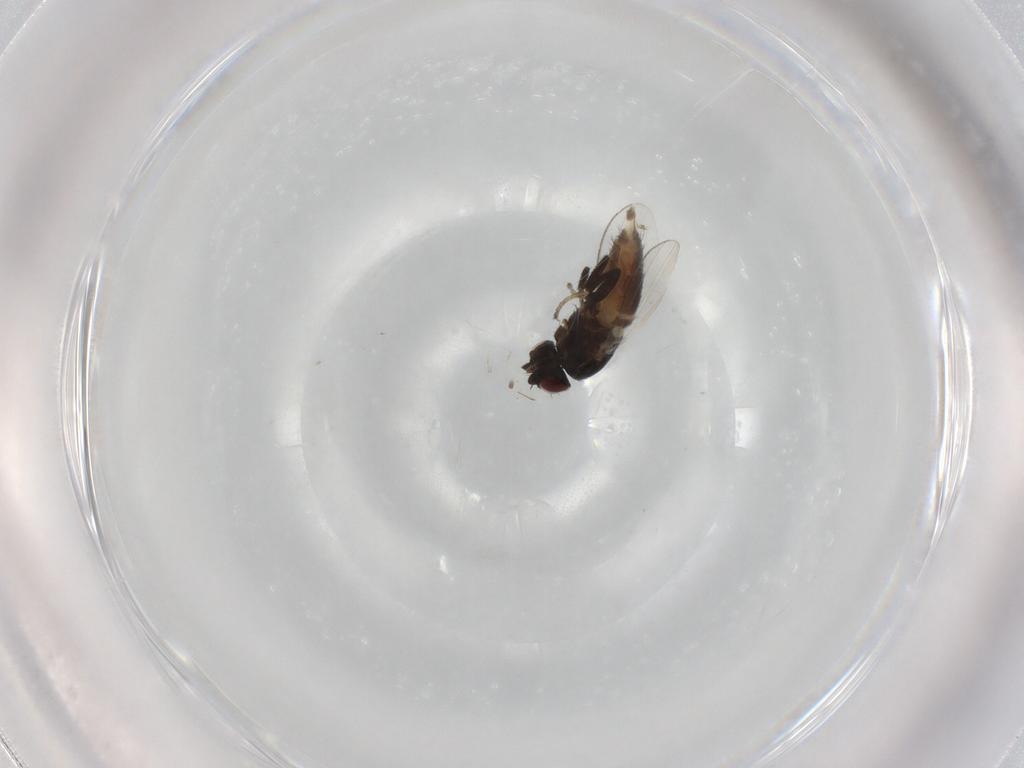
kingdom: Animalia
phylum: Arthropoda
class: Insecta
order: Diptera
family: Milichiidae
